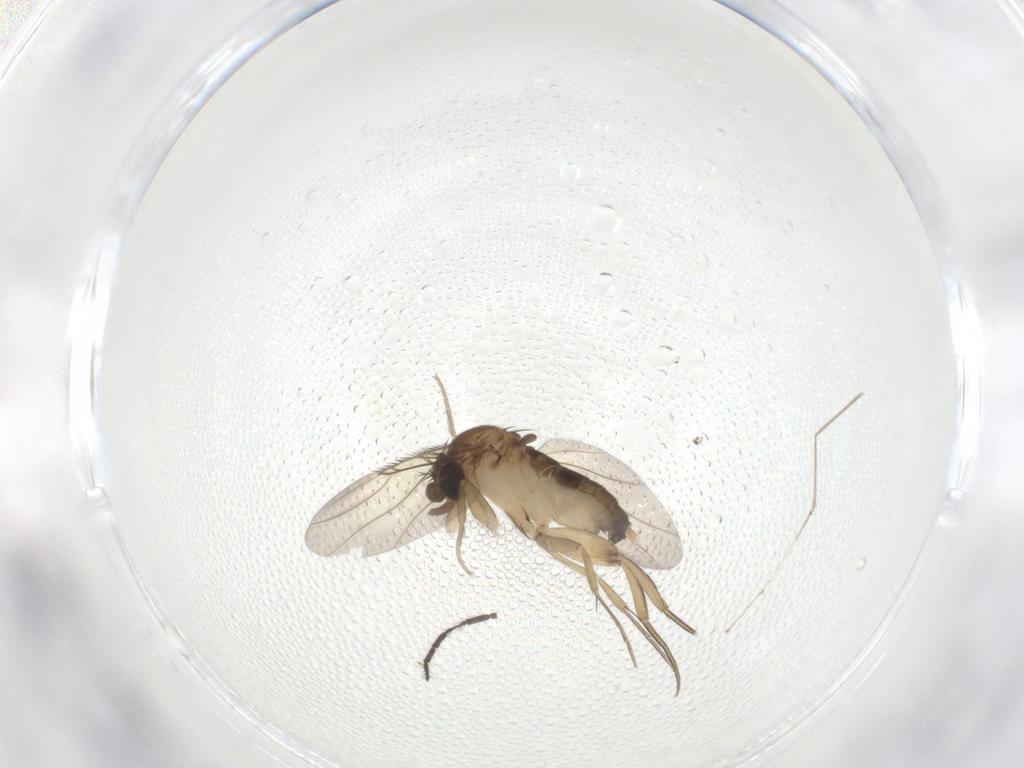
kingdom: Animalia
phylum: Arthropoda
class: Insecta
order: Diptera
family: Phoridae
